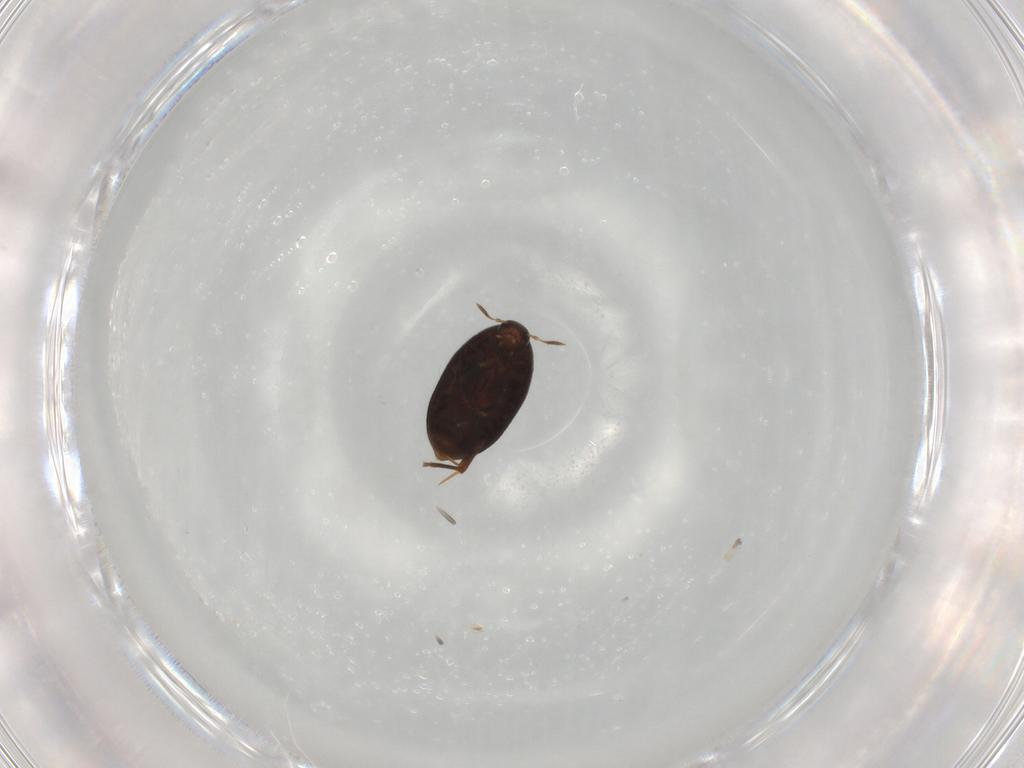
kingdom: Animalia
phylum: Arthropoda
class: Insecta
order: Coleoptera
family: Melandryidae
